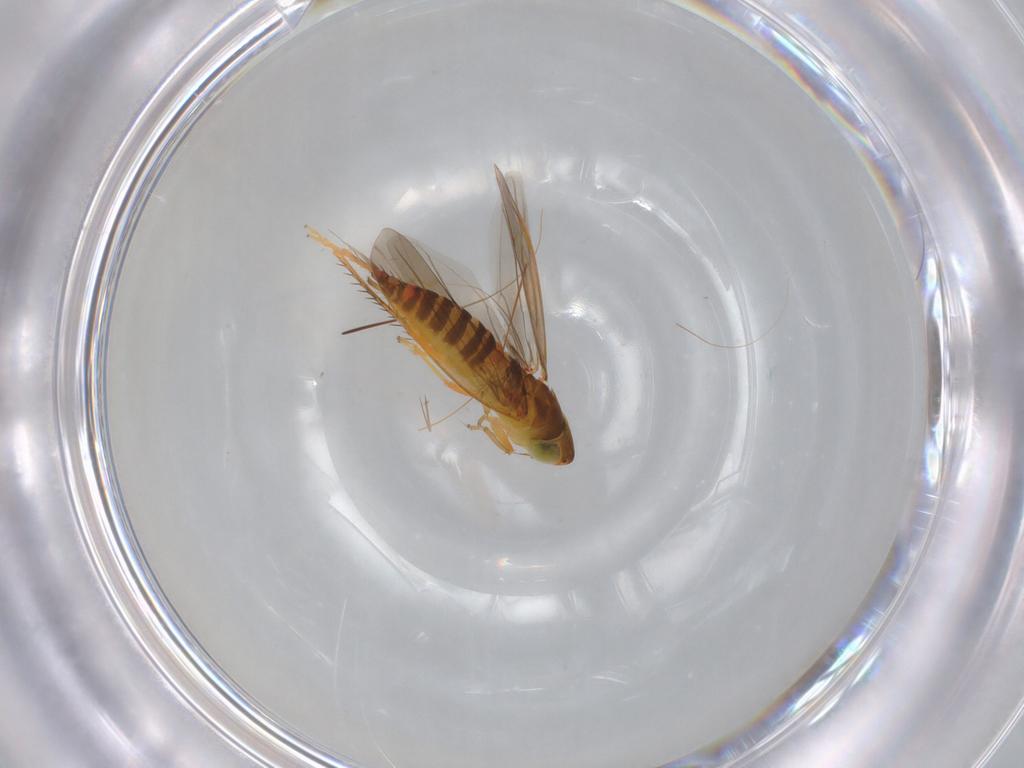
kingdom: Animalia
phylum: Arthropoda
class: Insecta
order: Hemiptera
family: Cicadellidae
